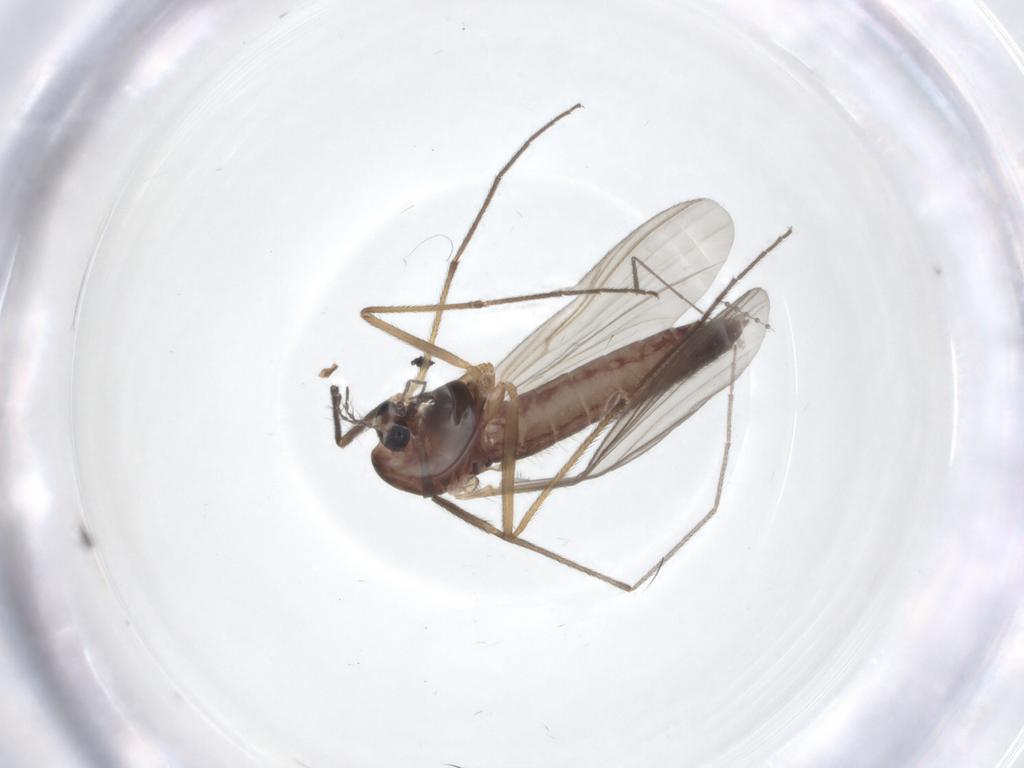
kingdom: Animalia
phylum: Arthropoda
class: Insecta
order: Diptera
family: Chironomidae
